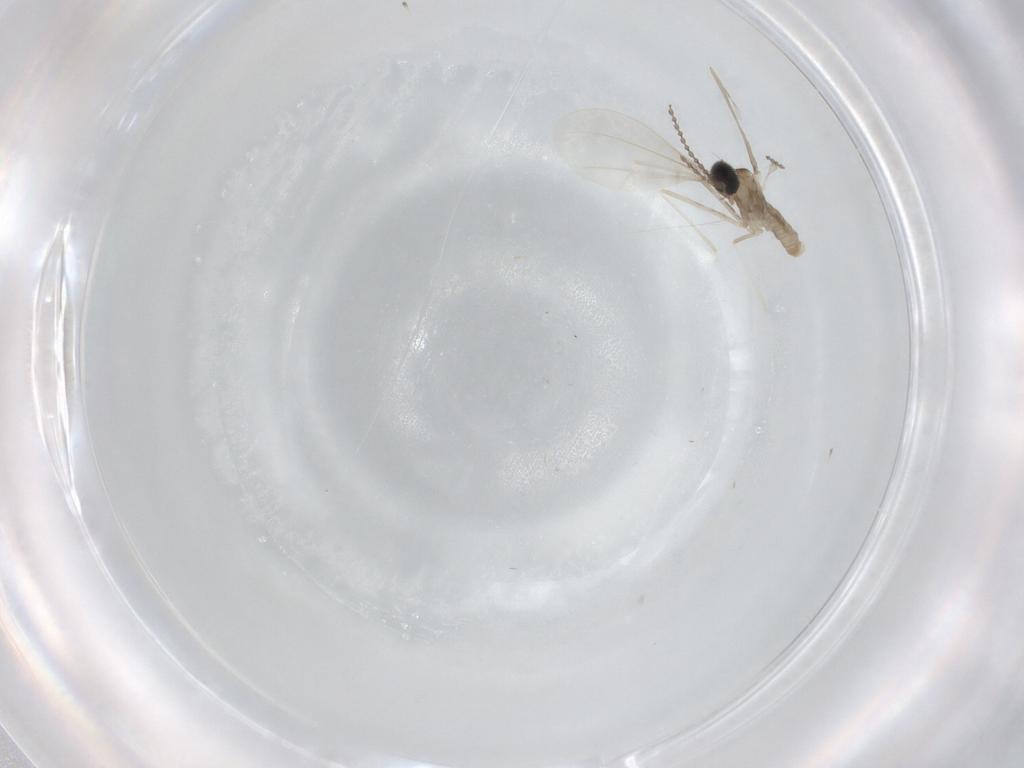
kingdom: Animalia
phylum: Arthropoda
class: Insecta
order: Diptera
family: Cecidomyiidae
